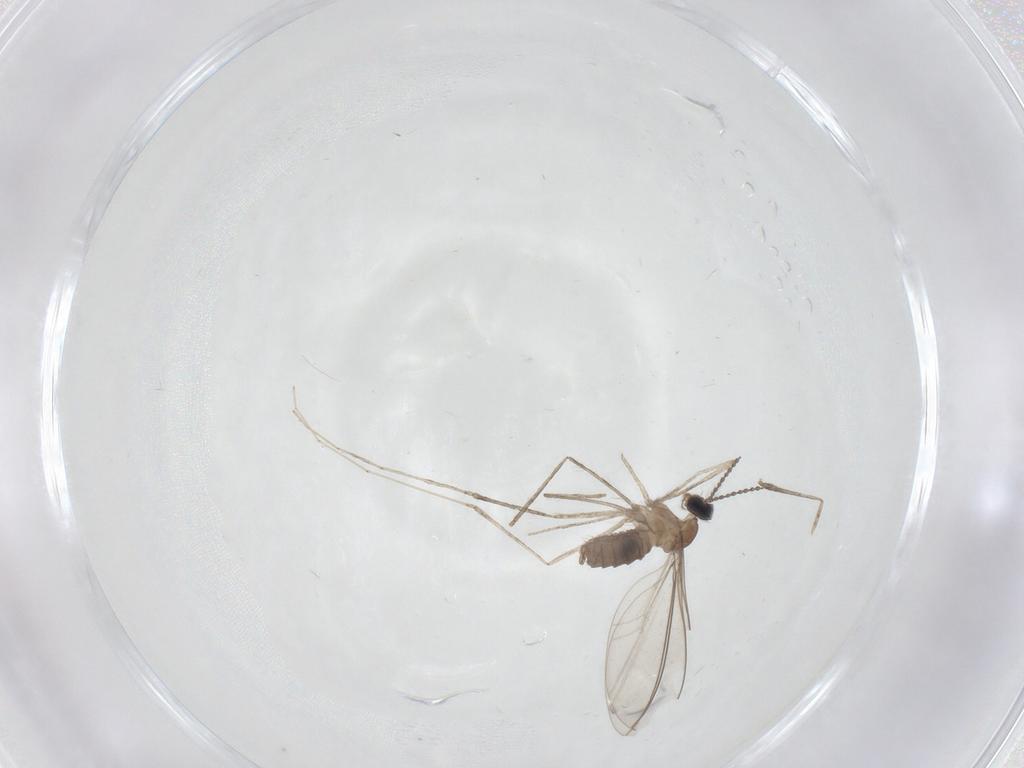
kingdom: Animalia
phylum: Arthropoda
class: Insecta
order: Diptera
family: Cecidomyiidae
